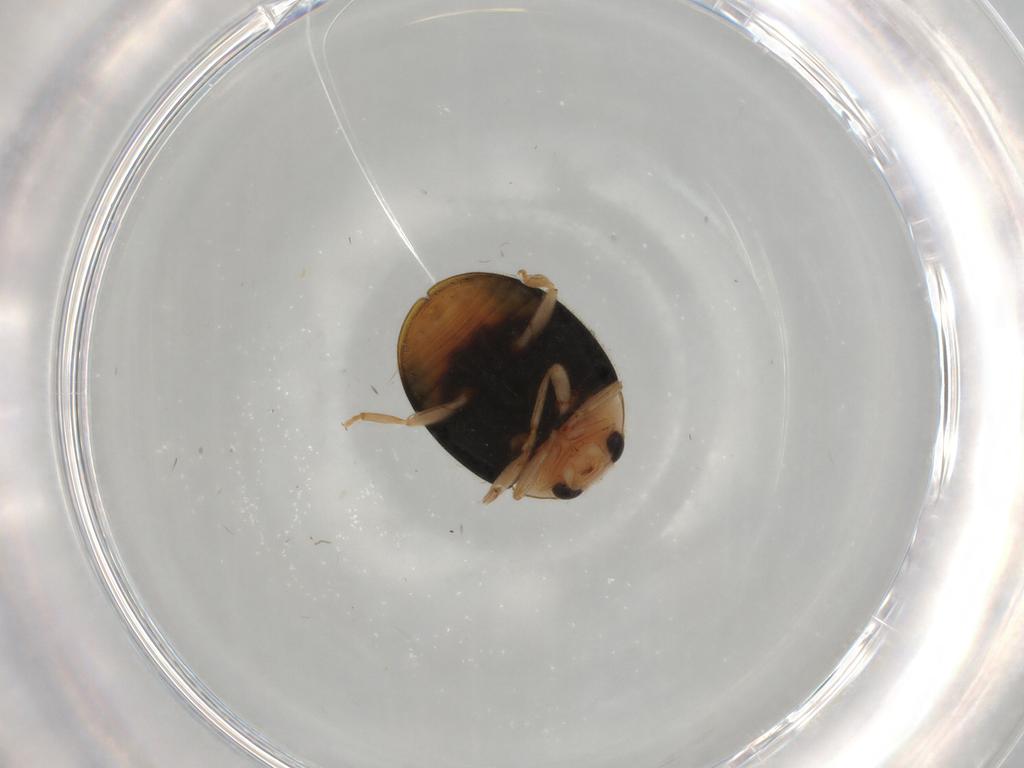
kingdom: Animalia
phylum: Arthropoda
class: Insecta
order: Coleoptera
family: Coccinellidae
